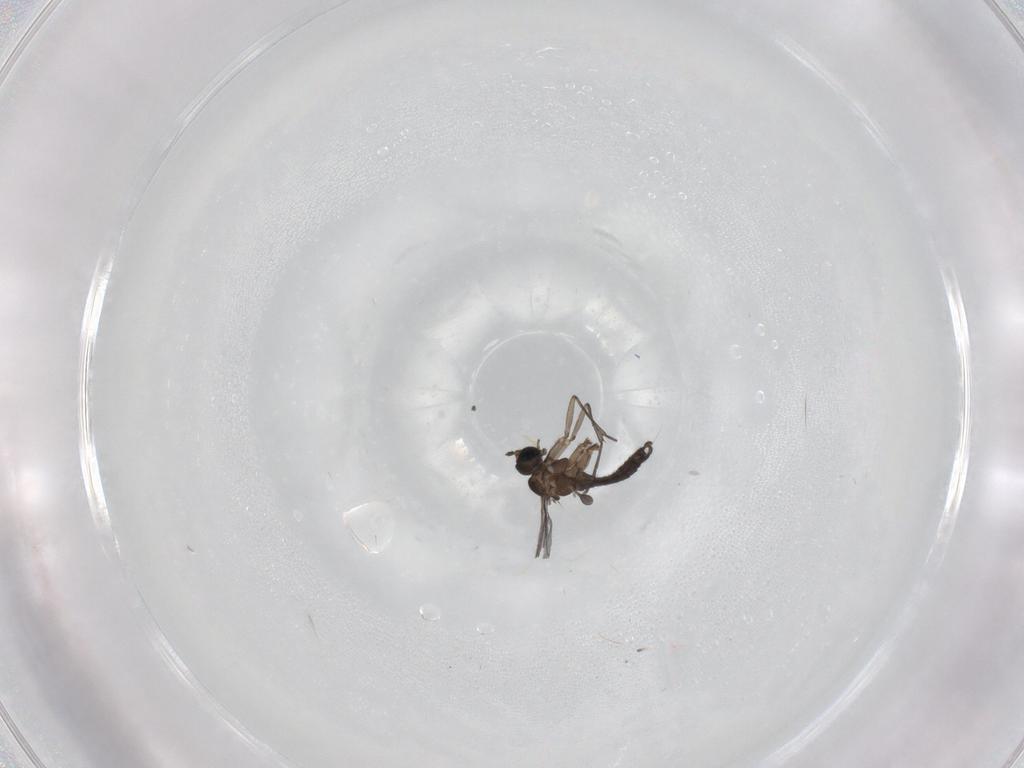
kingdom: Animalia
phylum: Arthropoda
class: Insecta
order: Diptera
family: Sciaridae
